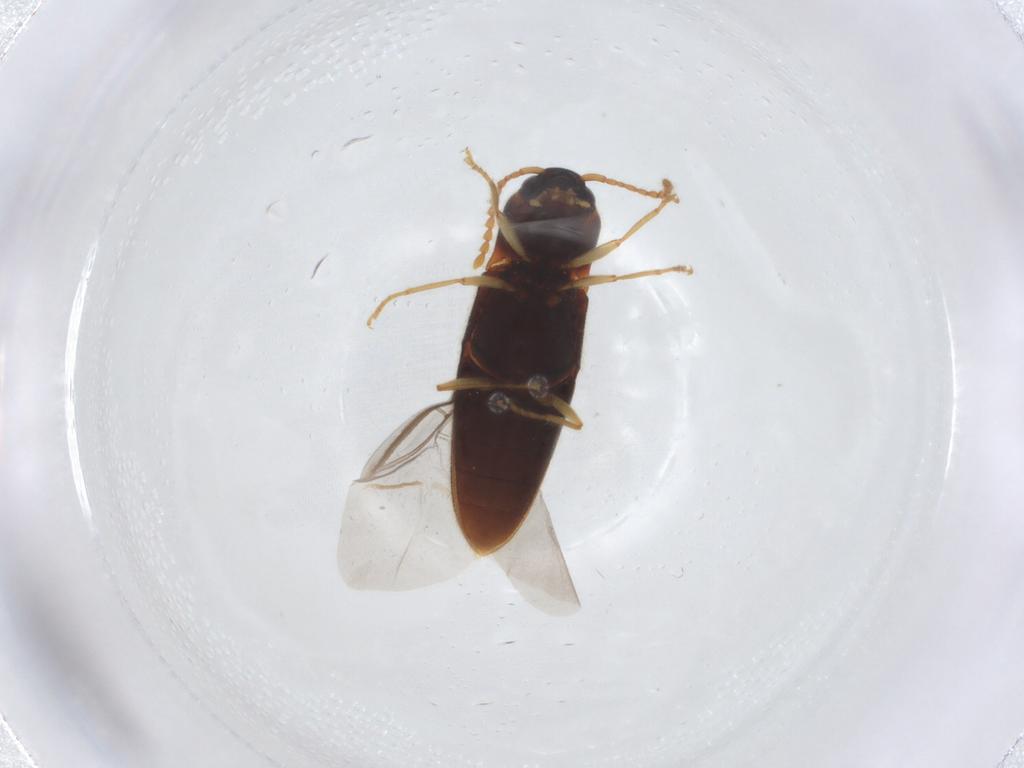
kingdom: Animalia
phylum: Arthropoda
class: Insecta
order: Coleoptera
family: Elateridae
